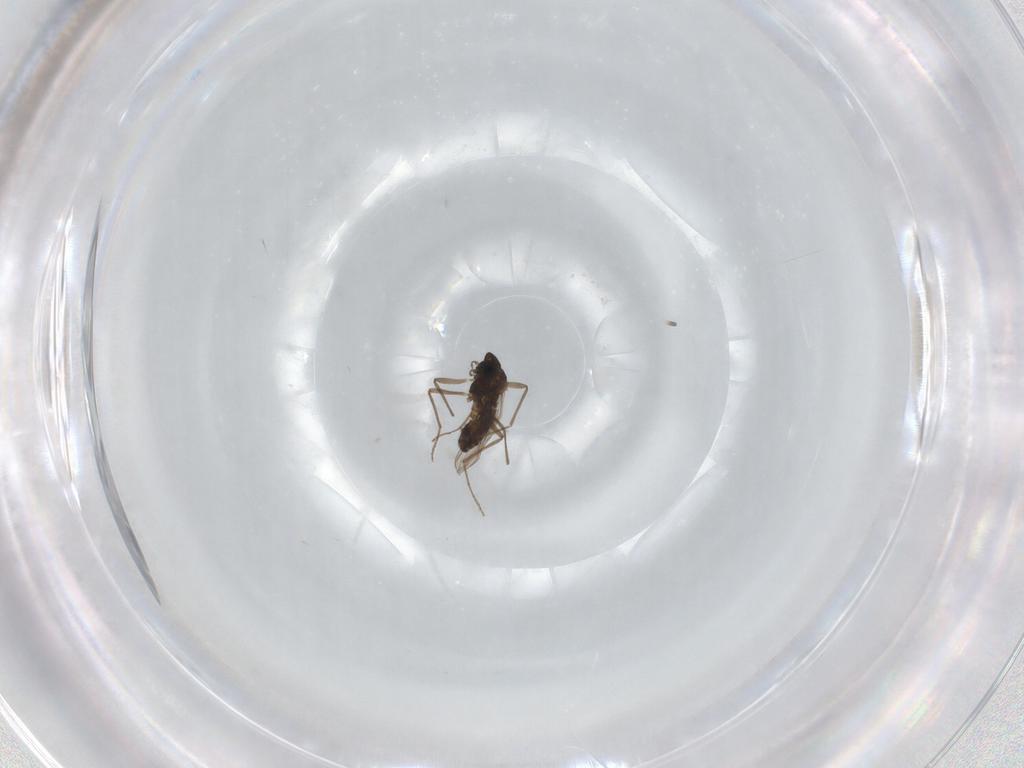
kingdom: Animalia
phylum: Arthropoda
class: Insecta
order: Diptera
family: Chironomidae
